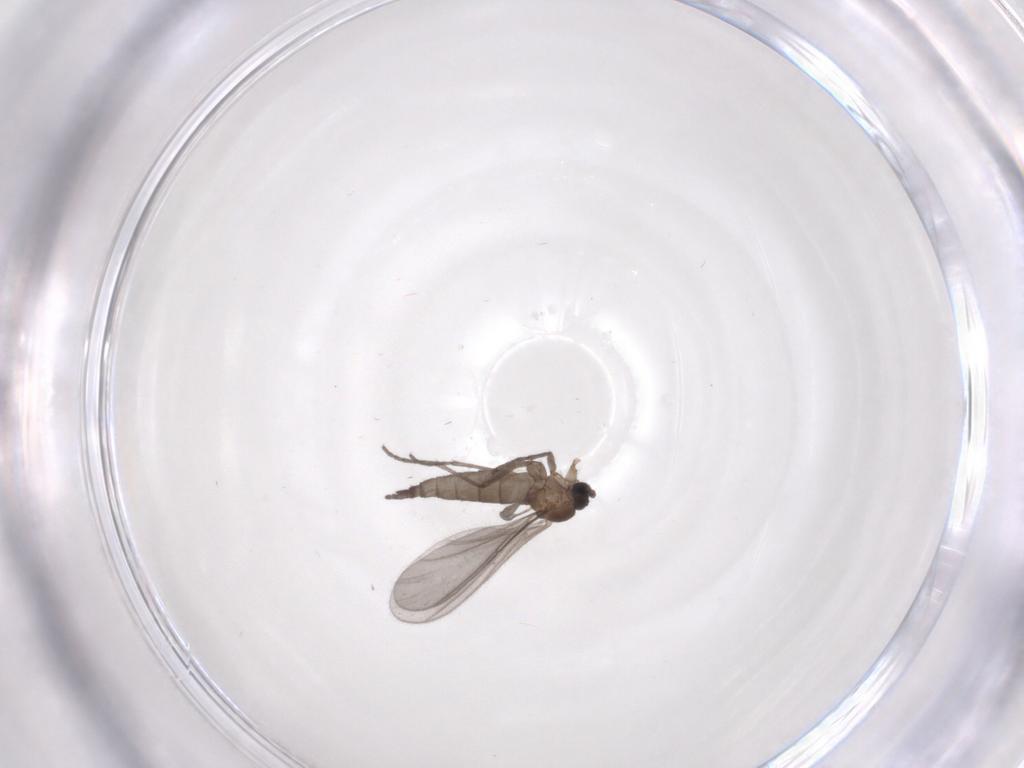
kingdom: Animalia
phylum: Arthropoda
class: Insecta
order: Diptera
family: Sciaridae
